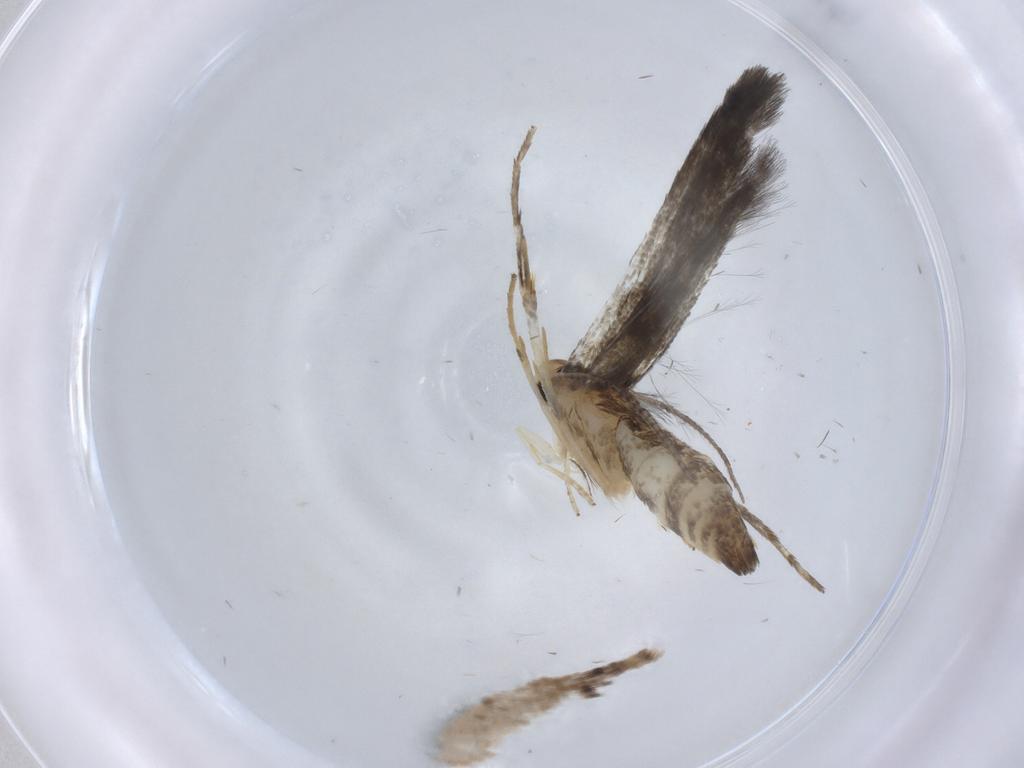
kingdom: Animalia
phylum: Arthropoda
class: Insecta
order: Lepidoptera
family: Stathmopodidae
